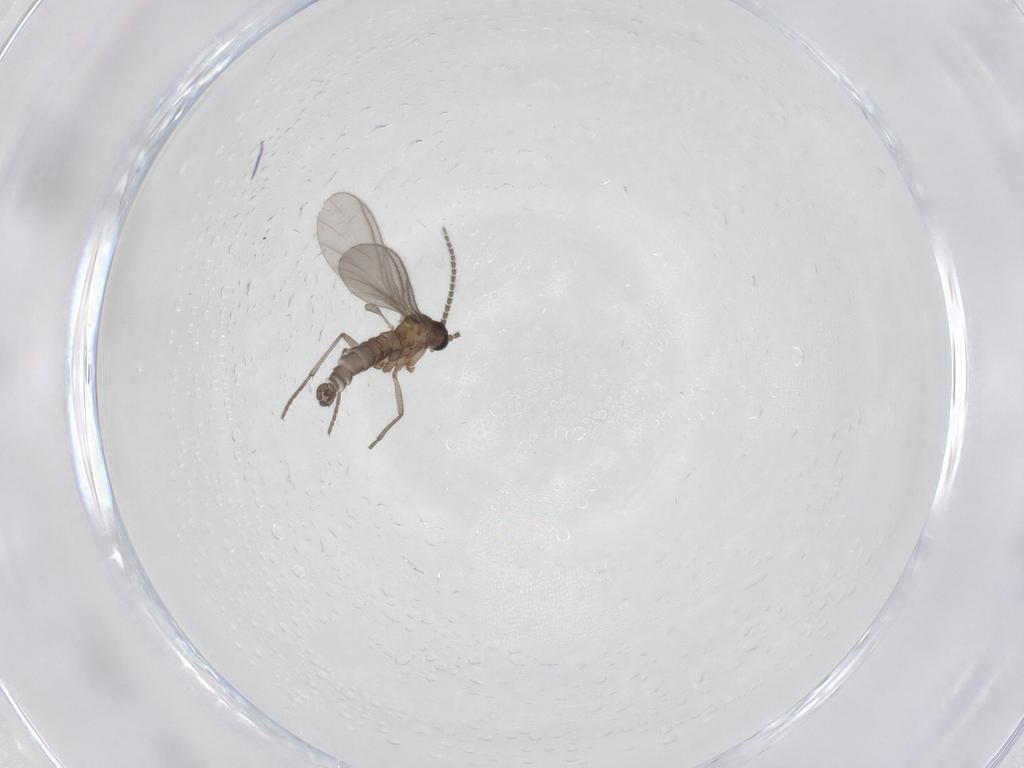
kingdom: Animalia
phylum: Arthropoda
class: Insecta
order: Diptera
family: Sciaridae
